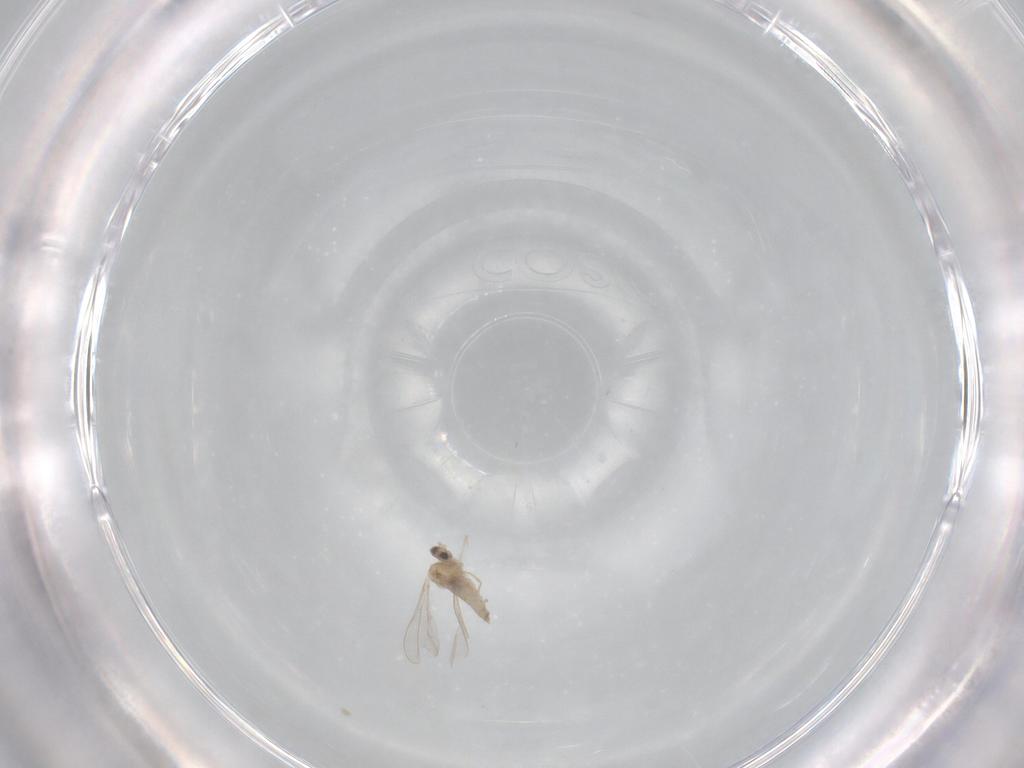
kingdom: Animalia
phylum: Arthropoda
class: Insecta
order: Diptera
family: Cecidomyiidae
